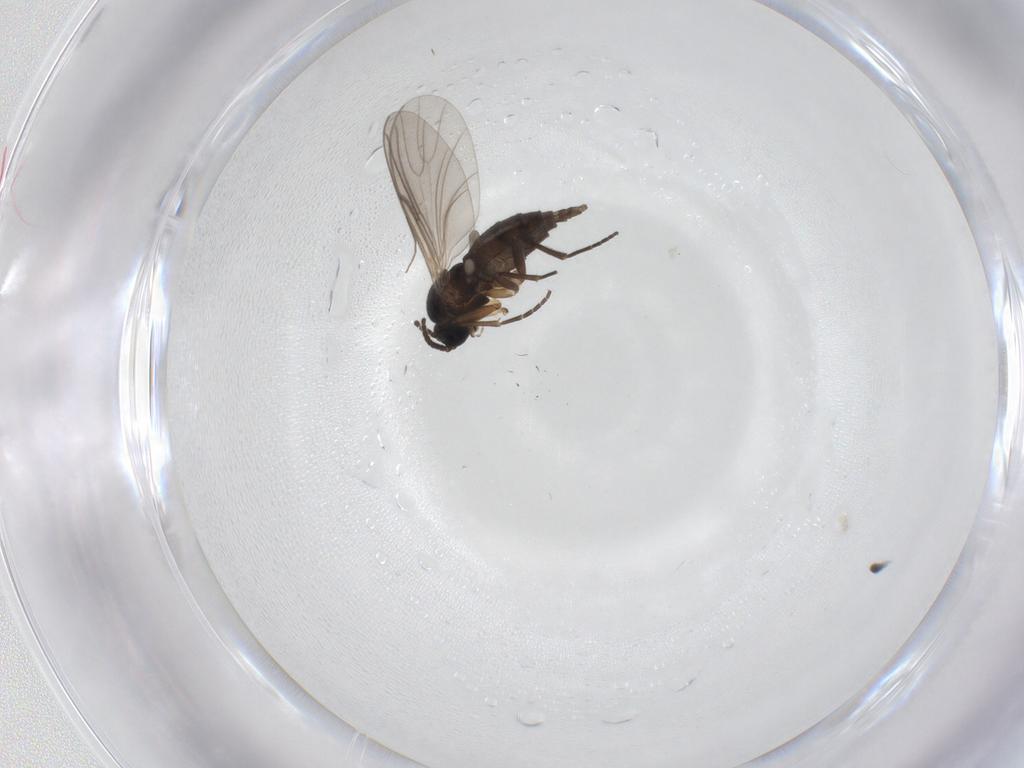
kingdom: Animalia
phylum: Arthropoda
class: Insecta
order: Diptera
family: Sciaridae
